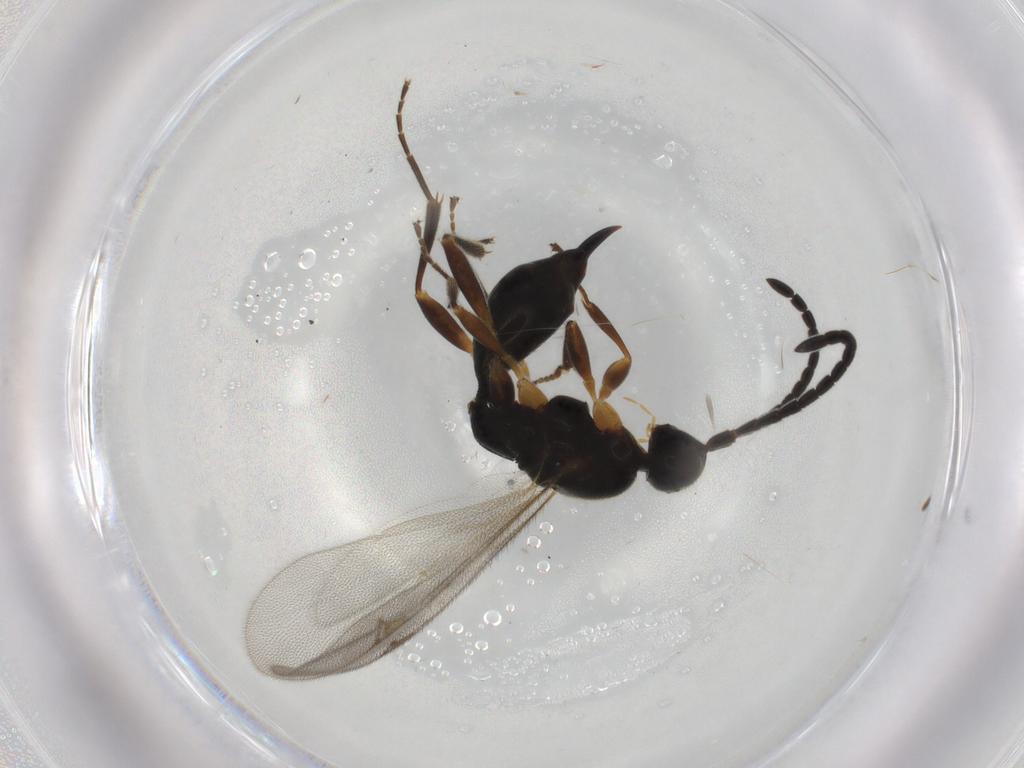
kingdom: Animalia
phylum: Arthropoda
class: Insecta
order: Hymenoptera
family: Proctotrupidae
